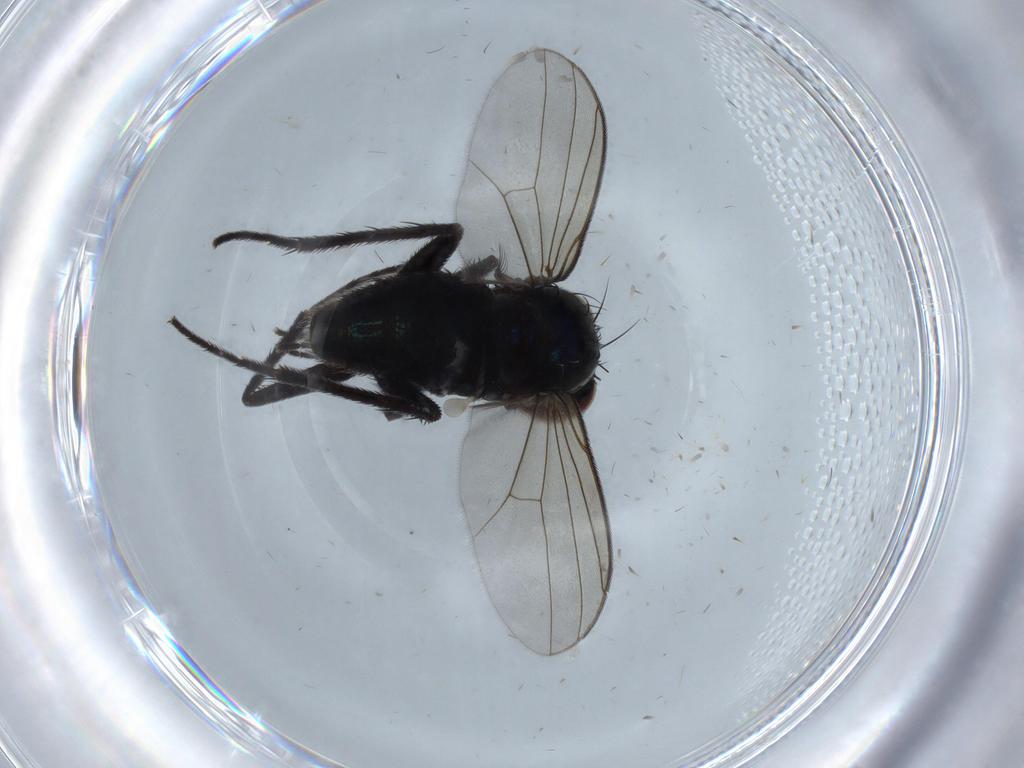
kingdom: Animalia
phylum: Arthropoda
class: Insecta
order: Diptera
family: Dolichopodidae
